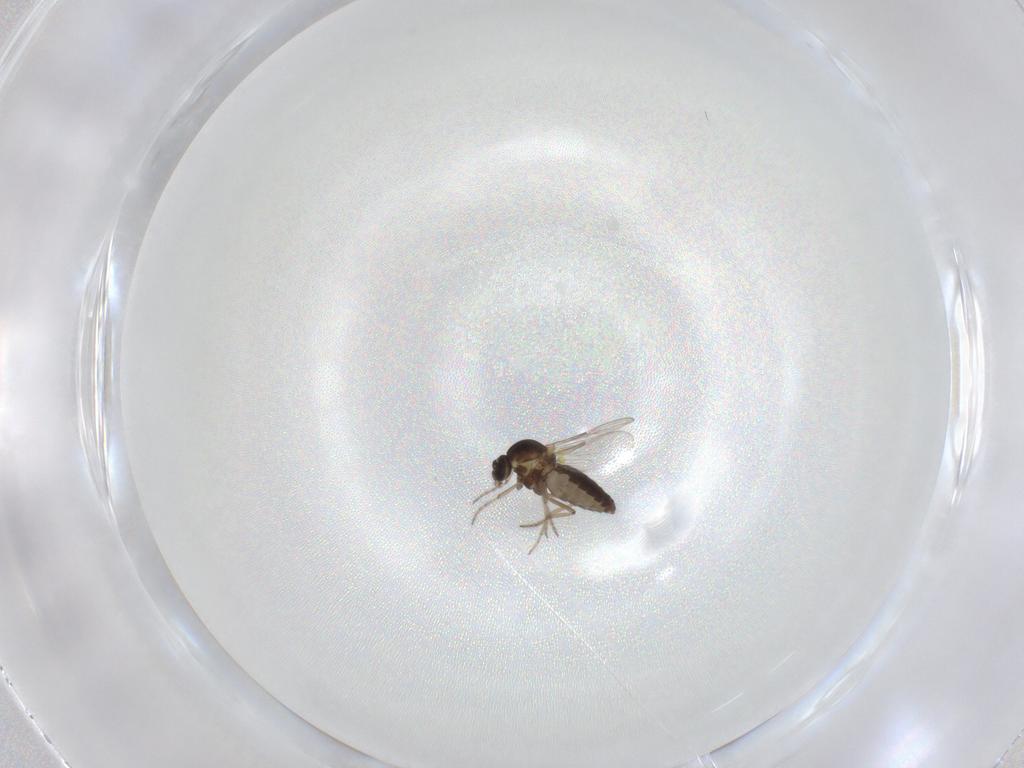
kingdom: Animalia
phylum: Arthropoda
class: Insecta
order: Diptera
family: Ceratopogonidae
